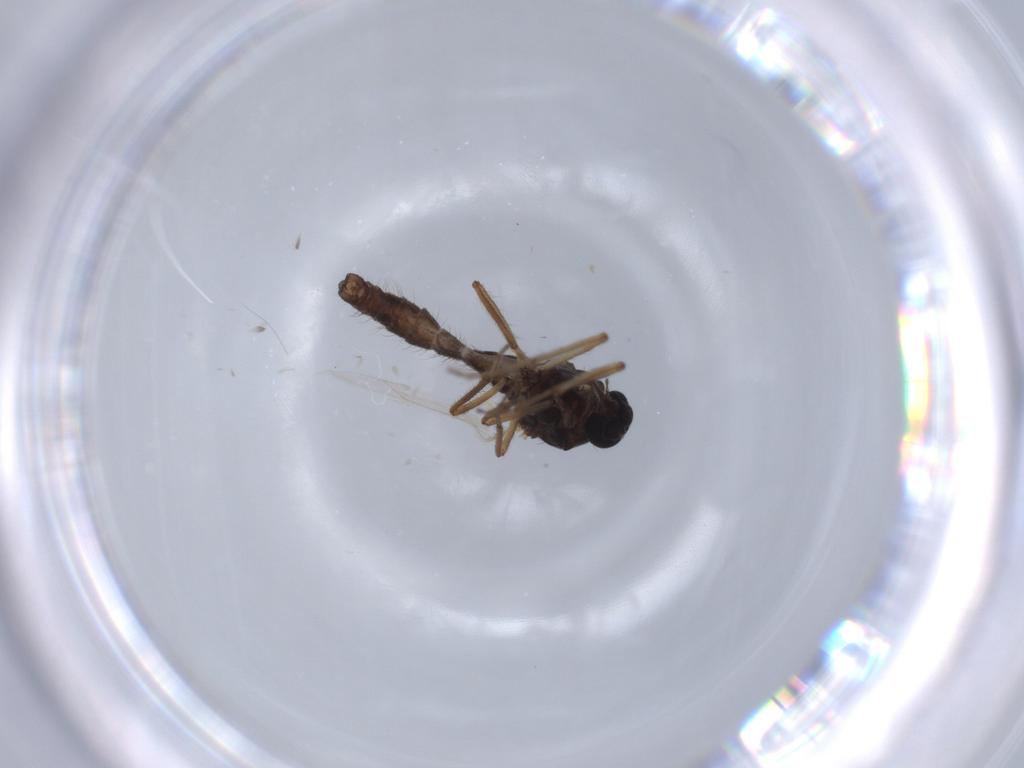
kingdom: Animalia
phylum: Arthropoda
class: Insecta
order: Diptera
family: Ceratopogonidae
